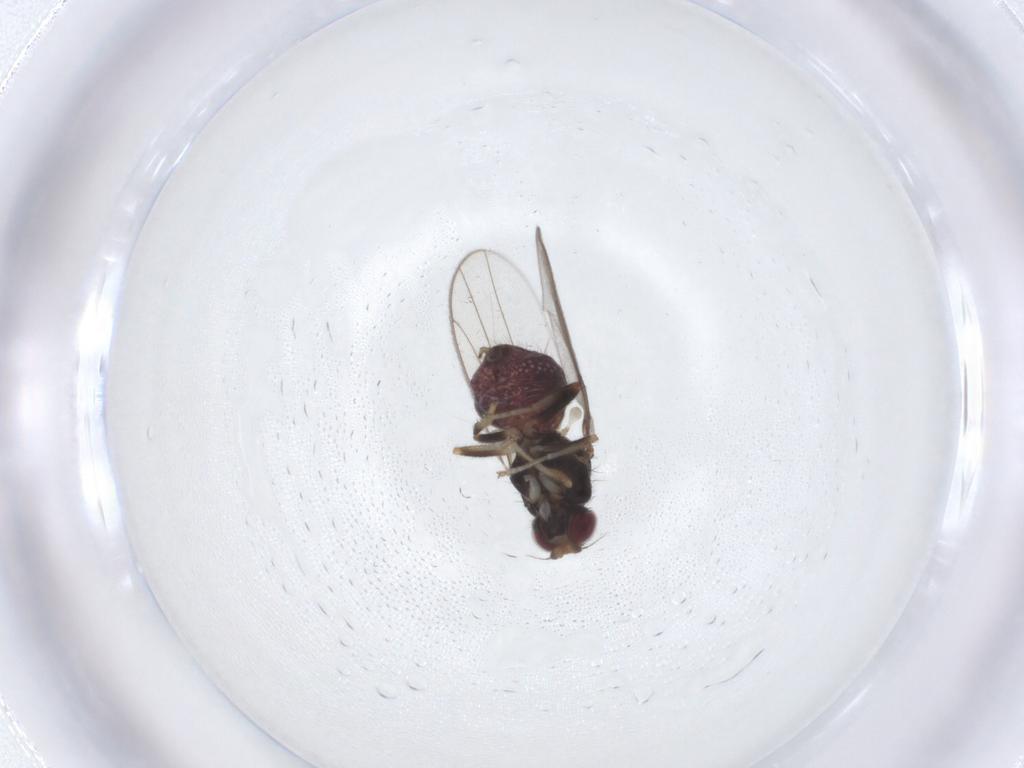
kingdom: Animalia
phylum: Arthropoda
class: Insecta
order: Diptera
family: Chloropidae
